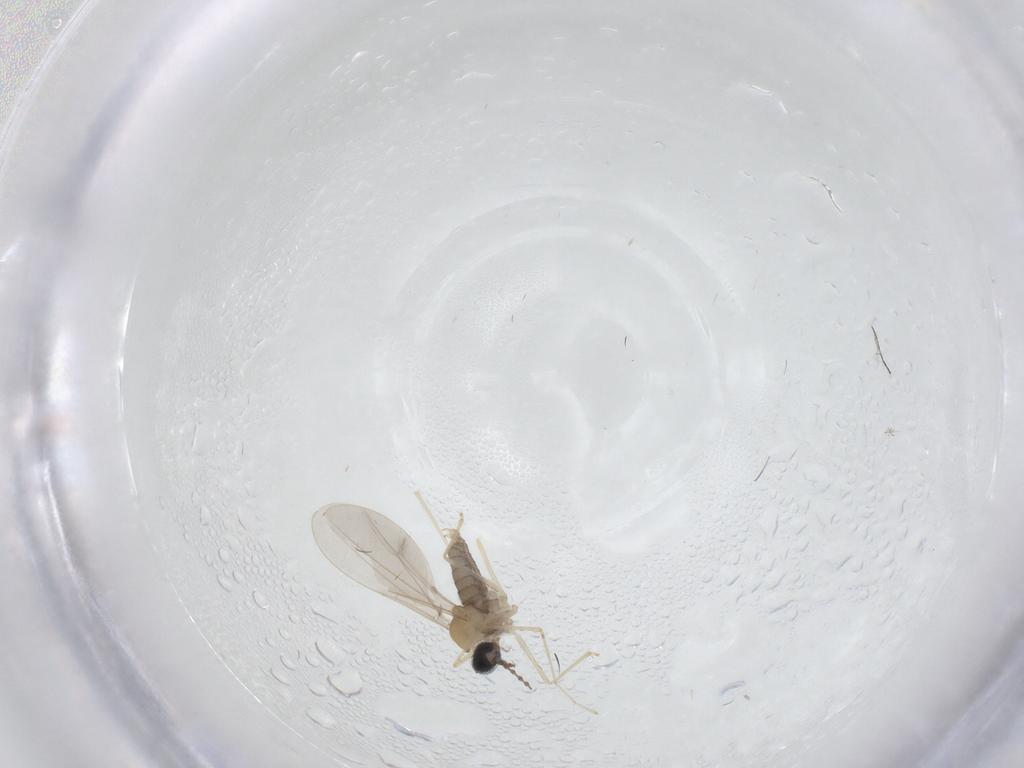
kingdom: Animalia
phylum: Arthropoda
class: Insecta
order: Diptera
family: Cecidomyiidae
